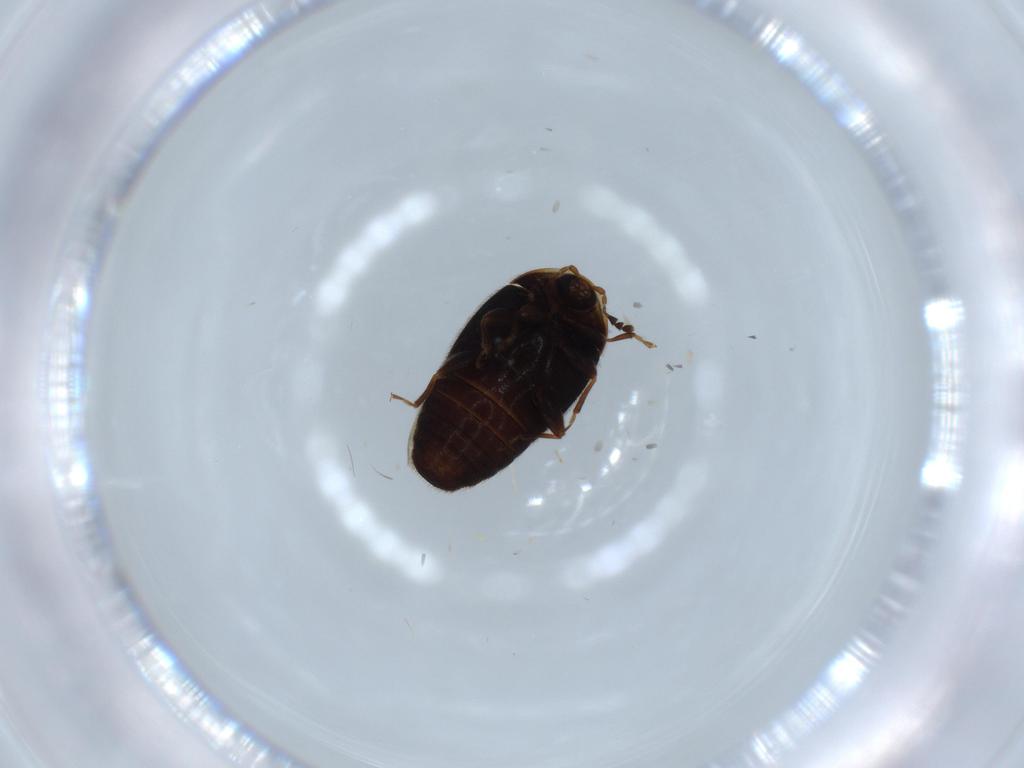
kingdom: Animalia
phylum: Arthropoda
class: Insecta
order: Coleoptera
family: Corylophidae
